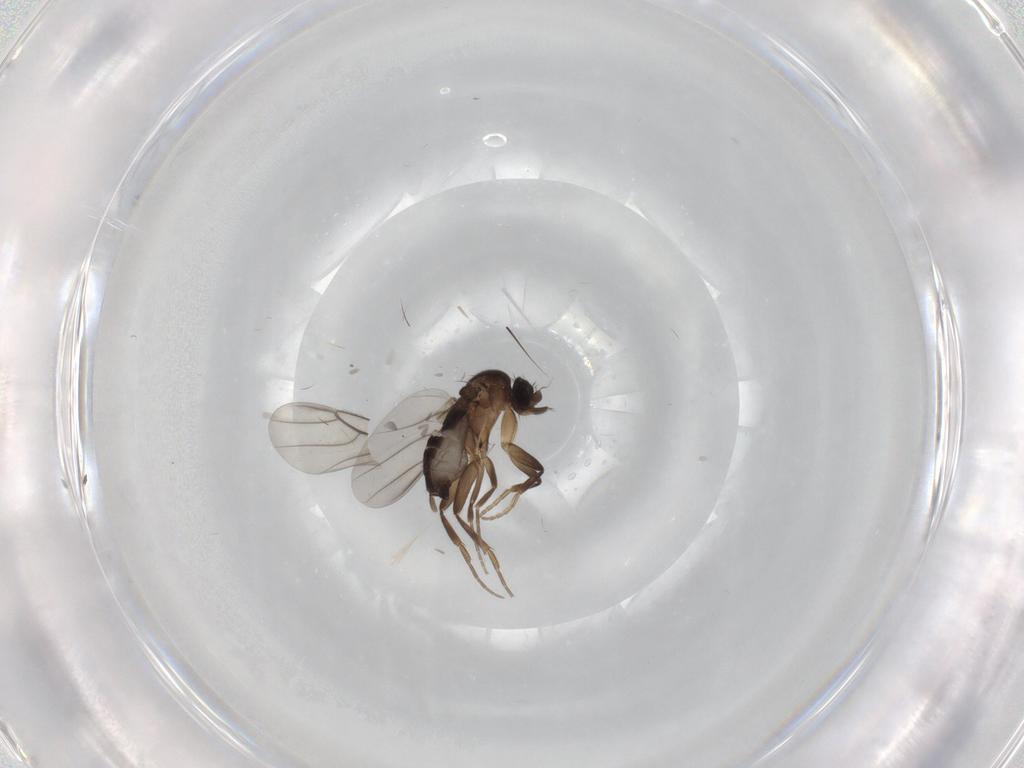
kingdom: Animalia
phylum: Arthropoda
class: Insecta
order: Diptera
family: Phoridae
